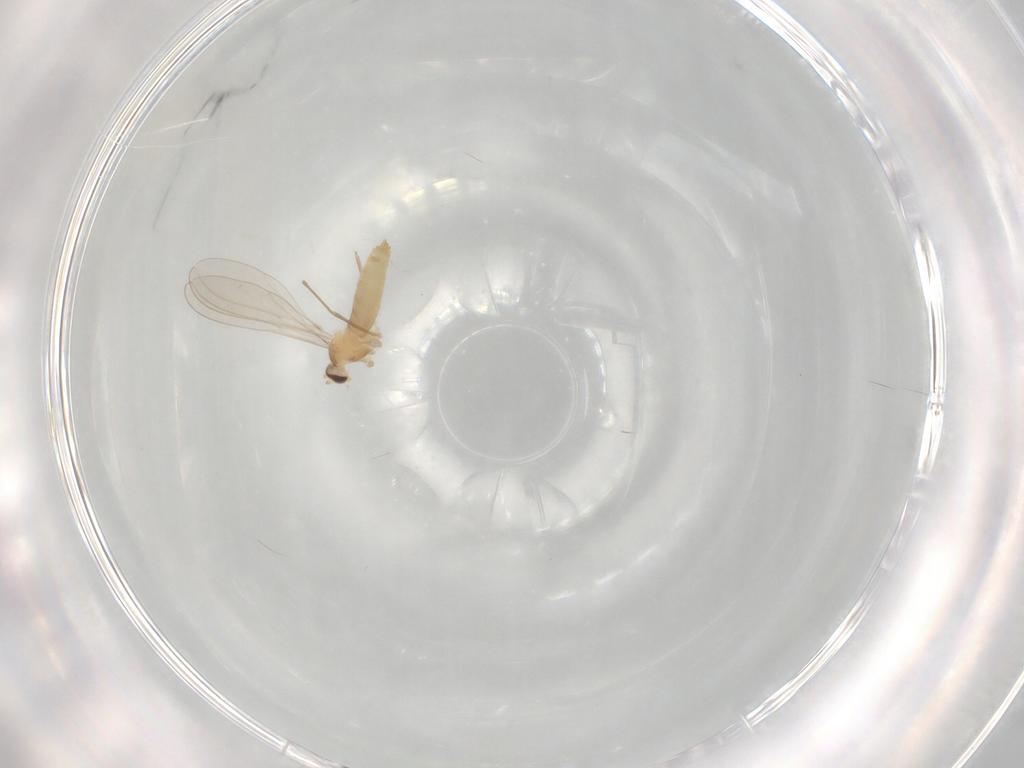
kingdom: Animalia
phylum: Arthropoda
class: Insecta
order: Diptera
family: Cecidomyiidae
